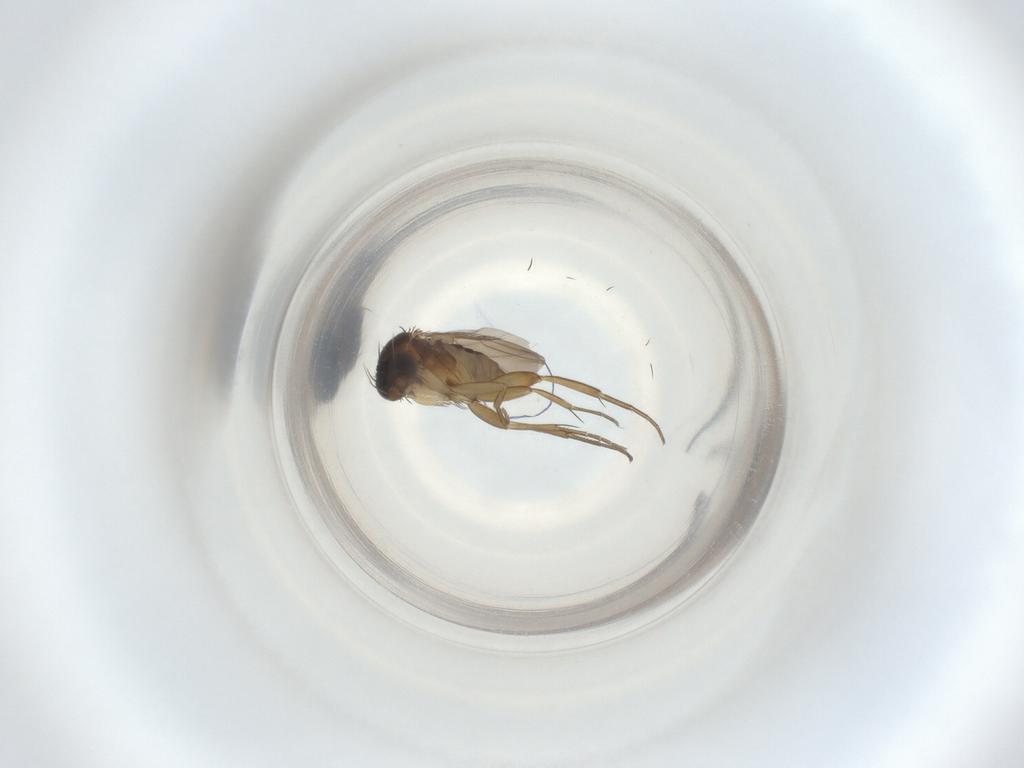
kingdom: Animalia
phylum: Arthropoda
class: Insecta
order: Diptera
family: Phoridae
